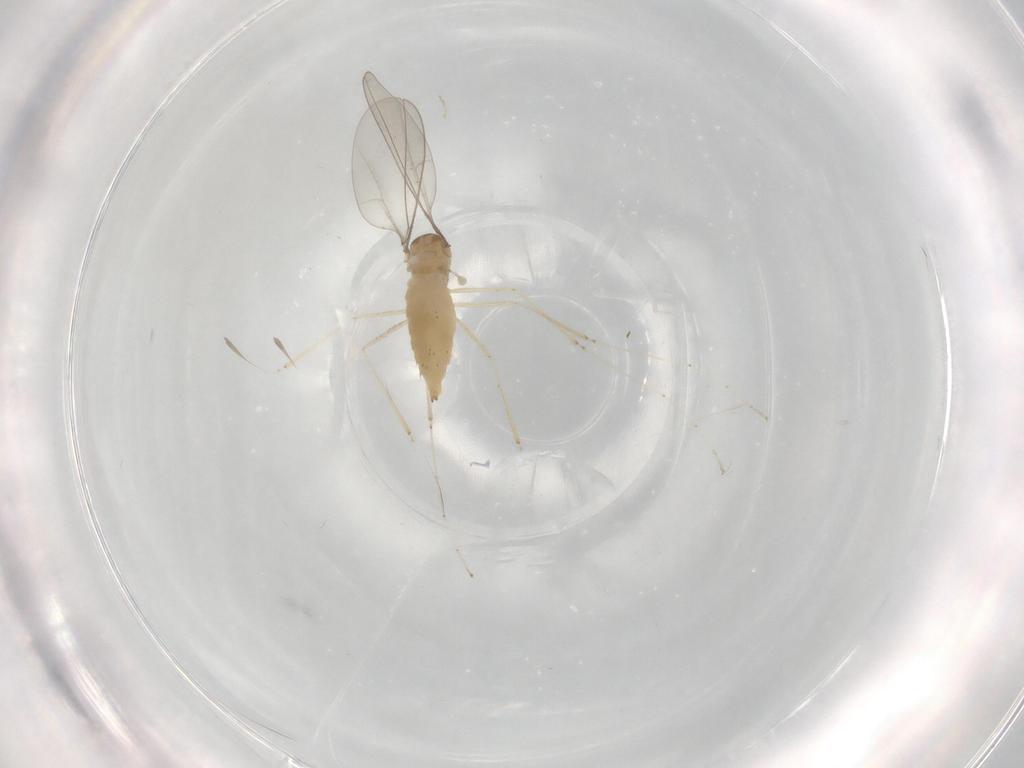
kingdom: Animalia
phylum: Arthropoda
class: Insecta
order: Diptera
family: Cecidomyiidae
